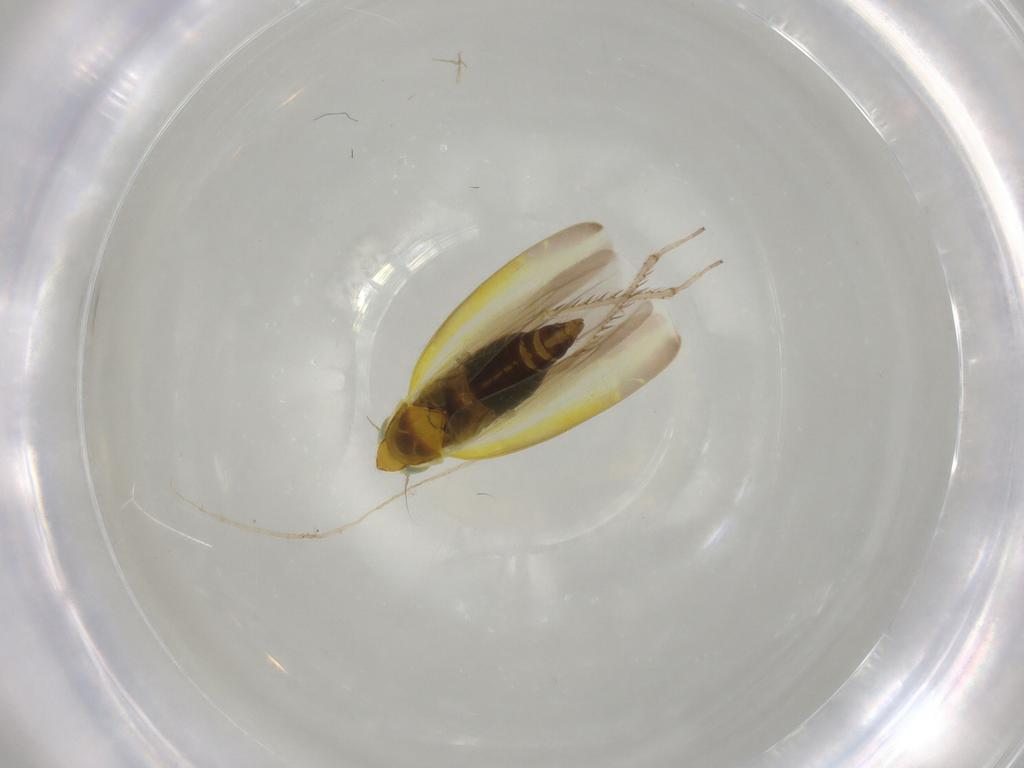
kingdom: Animalia
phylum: Arthropoda
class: Insecta
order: Hemiptera
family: Cicadellidae
